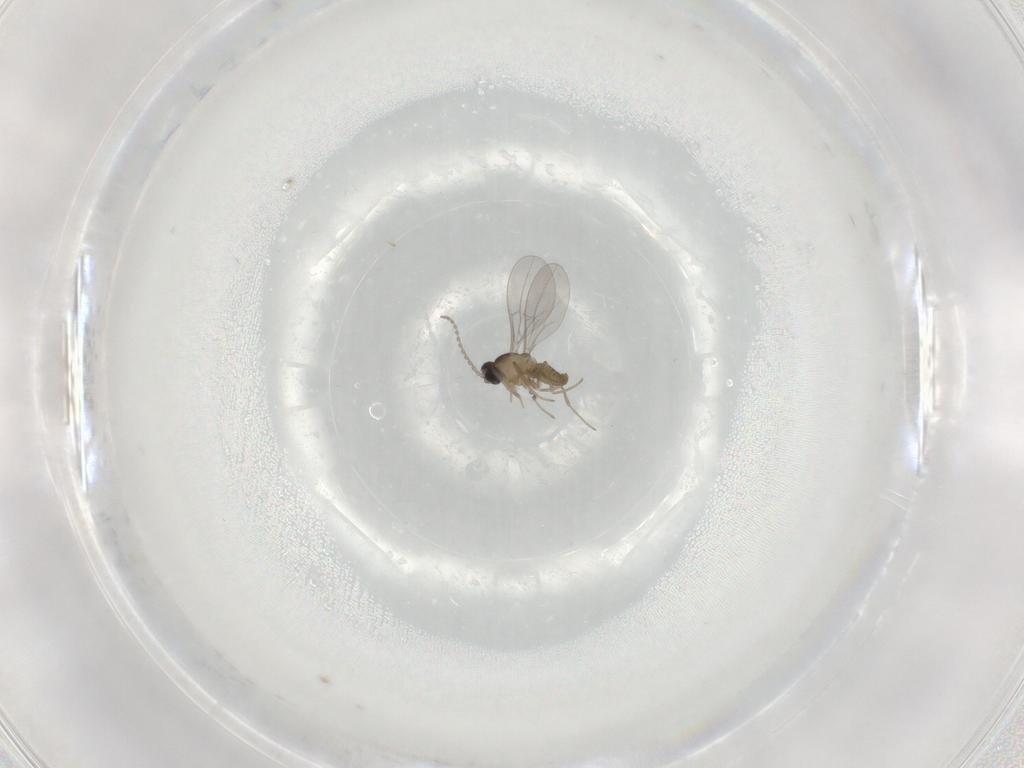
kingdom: Animalia
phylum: Arthropoda
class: Insecta
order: Diptera
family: Cecidomyiidae
